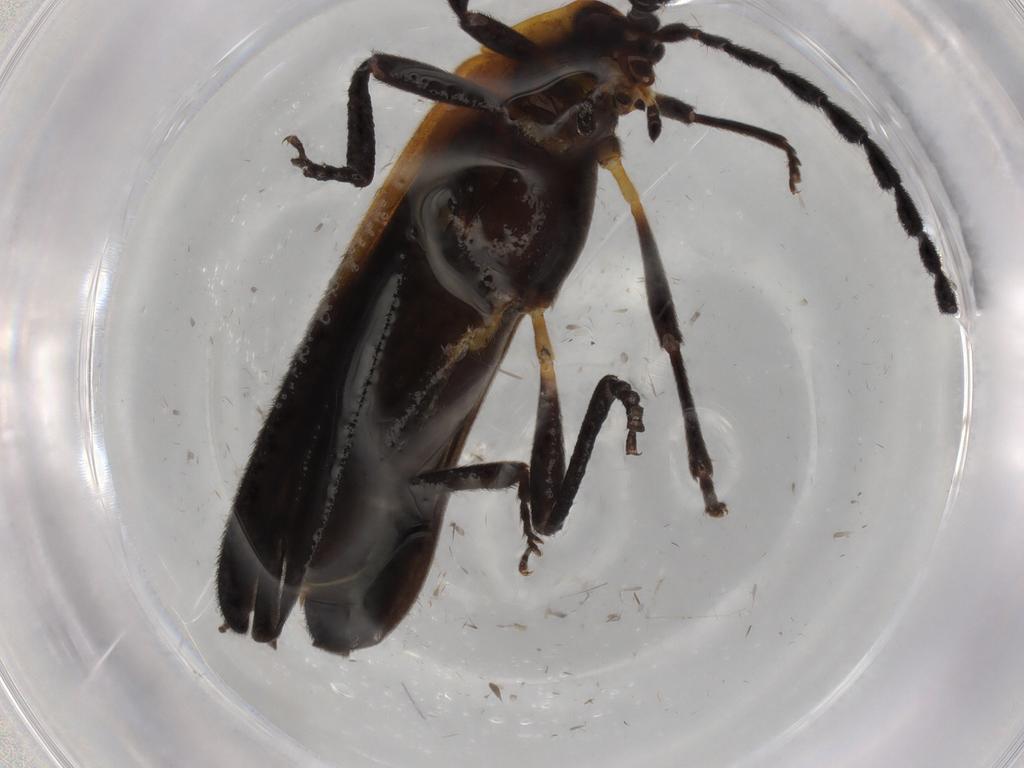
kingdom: Animalia
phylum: Arthropoda
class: Insecta
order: Coleoptera
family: Lycidae
